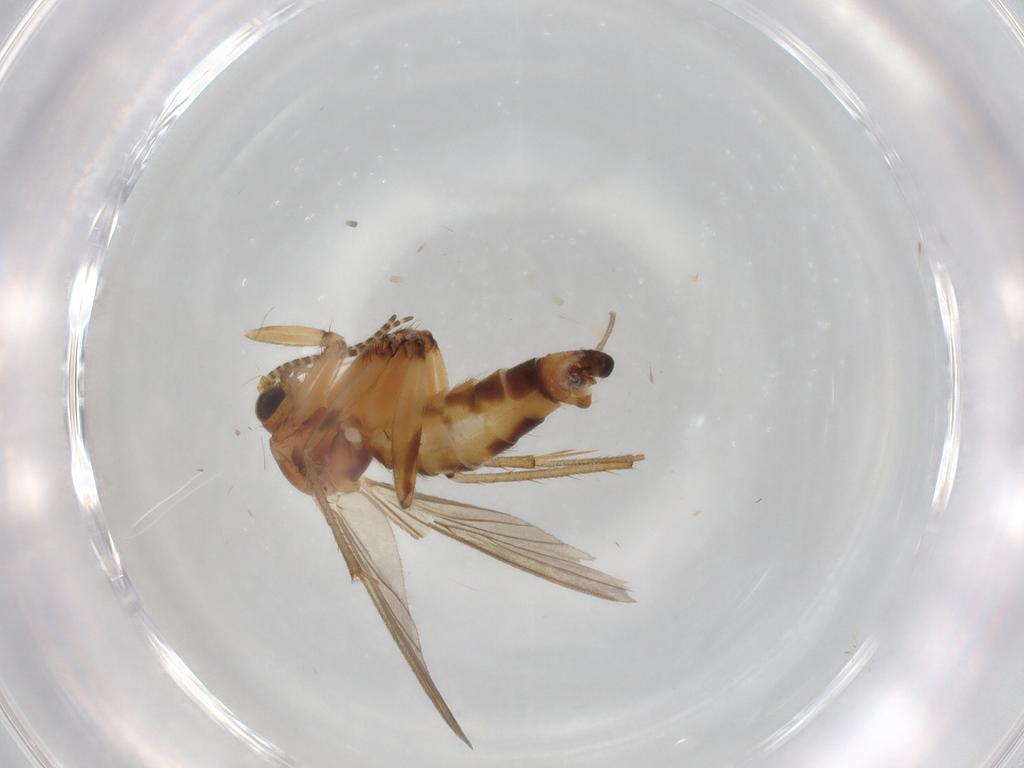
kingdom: Animalia
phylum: Arthropoda
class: Insecta
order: Diptera
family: Mycetophilidae
